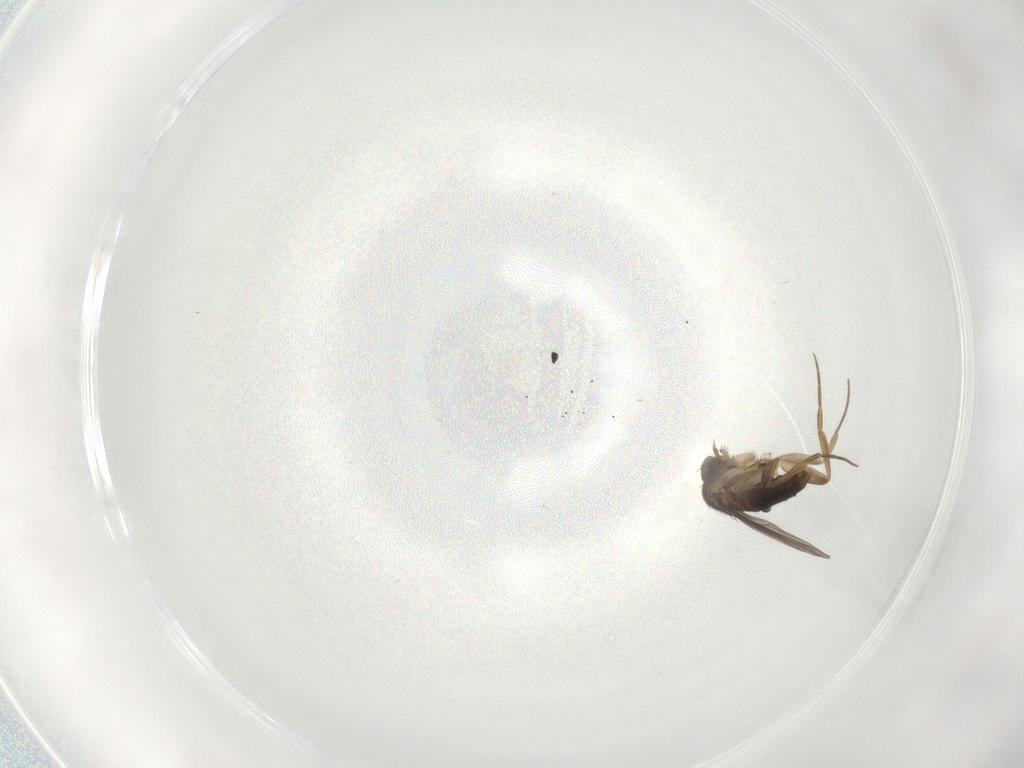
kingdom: Animalia
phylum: Arthropoda
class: Insecta
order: Diptera
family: Phoridae
